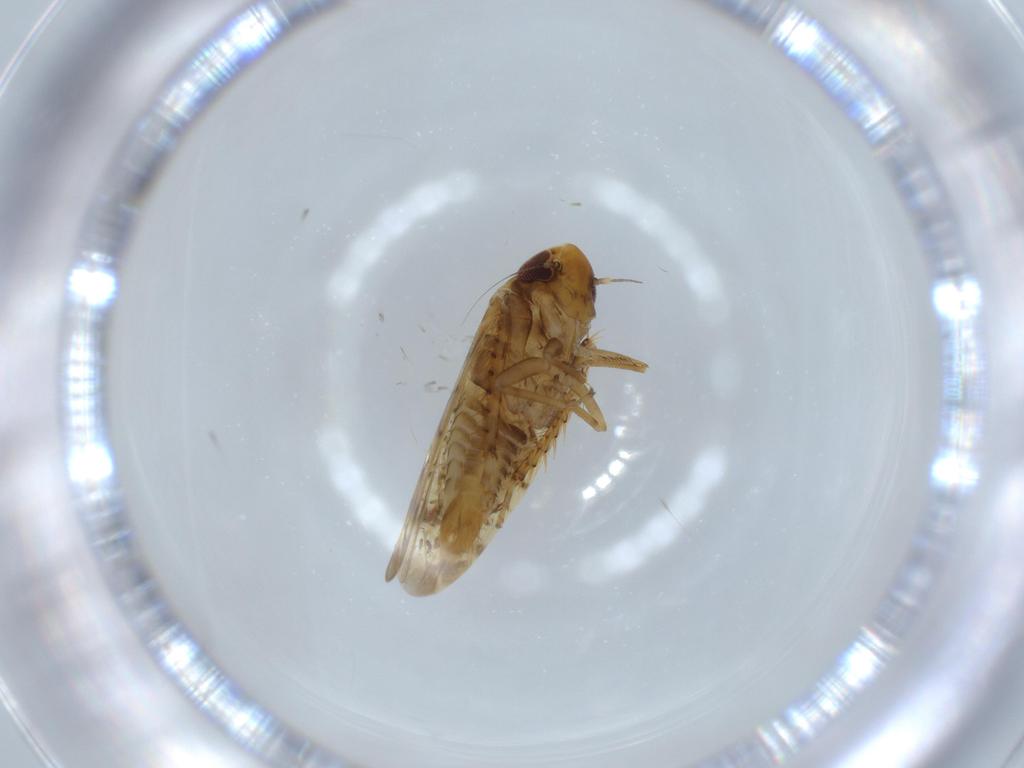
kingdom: Animalia
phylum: Arthropoda
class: Insecta
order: Hemiptera
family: Cicadellidae
